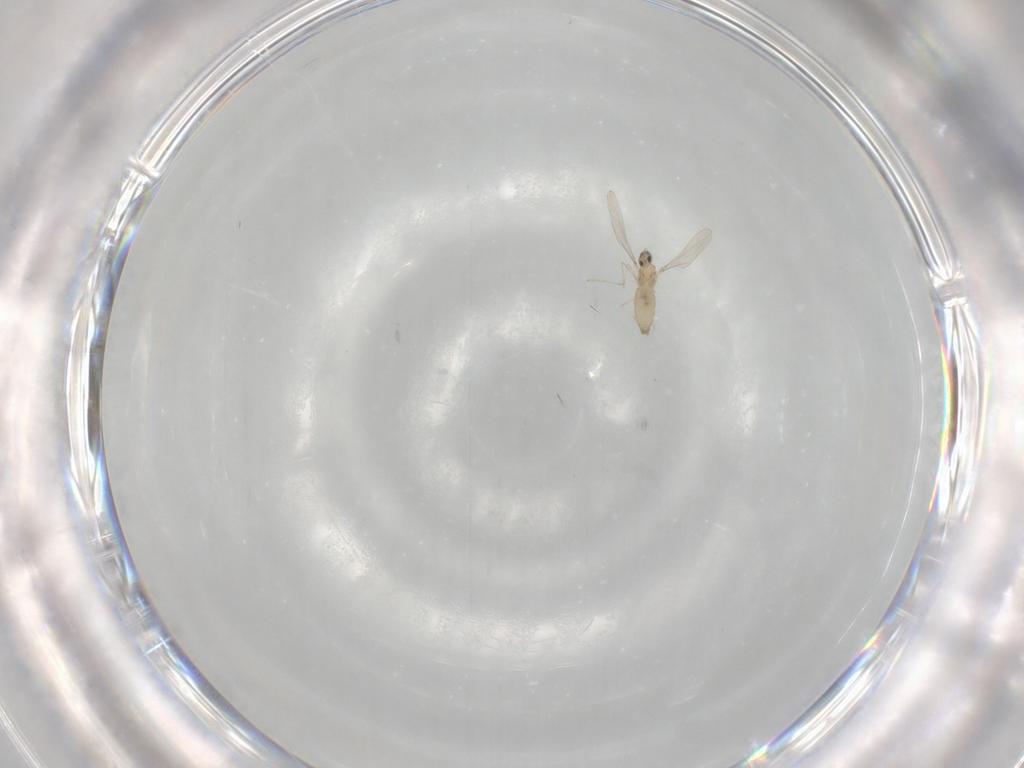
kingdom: Animalia
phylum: Arthropoda
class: Insecta
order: Diptera
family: Cecidomyiidae
